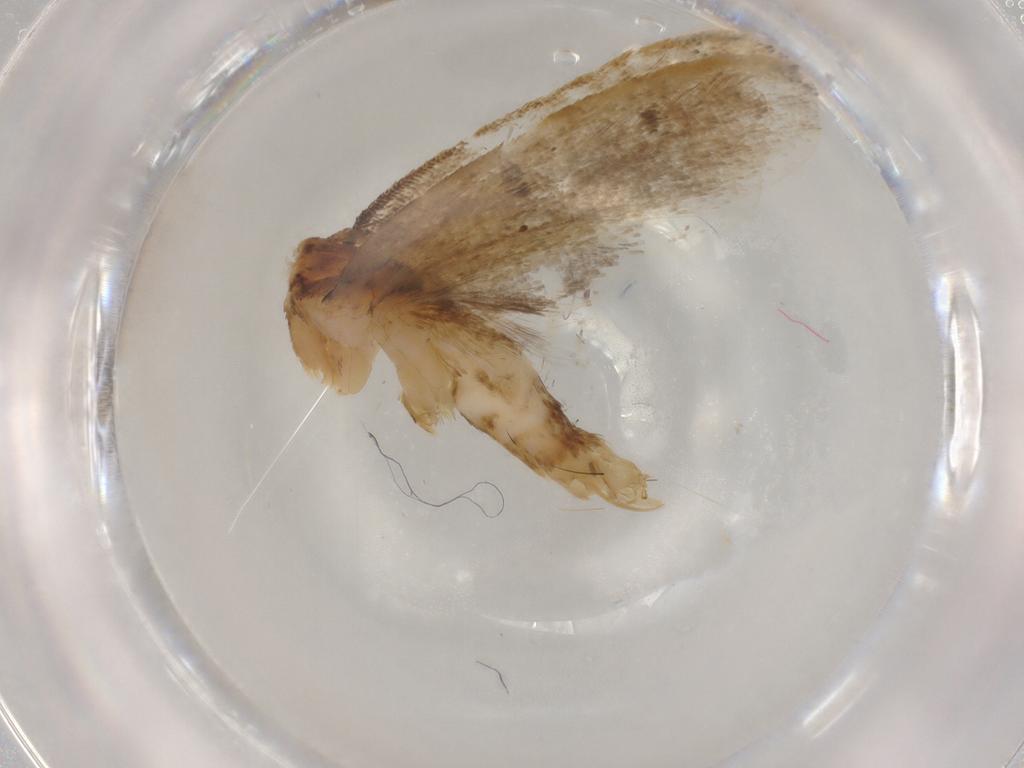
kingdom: Animalia
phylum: Arthropoda
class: Insecta
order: Lepidoptera
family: Lecithoceridae
